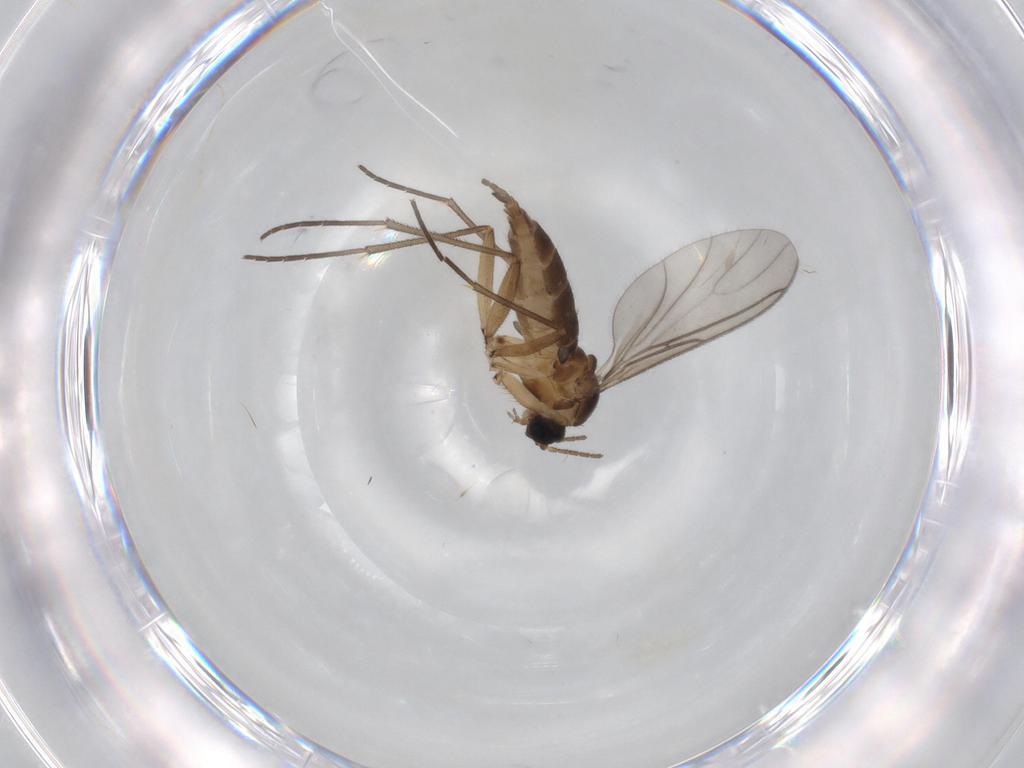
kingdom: Animalia
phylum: Arthropoda
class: Insecta
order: Diptera
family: Sciaridae
